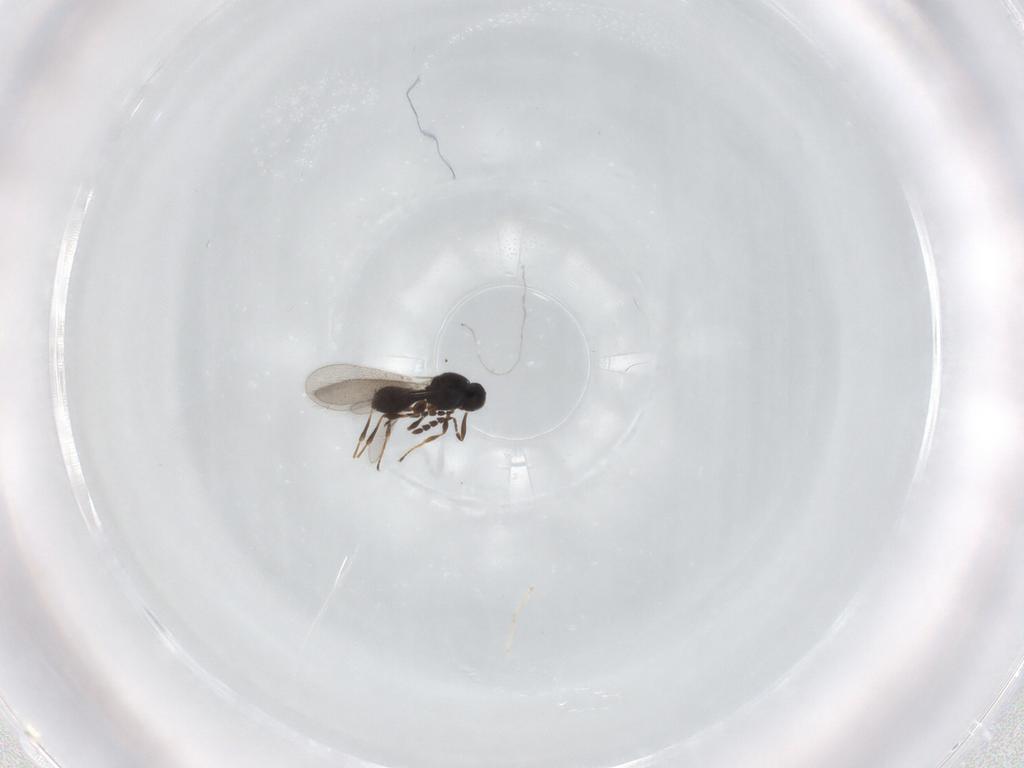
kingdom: Animalia
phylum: Arthropoda
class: Insecta
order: Hymenoptera
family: Platygastridae
